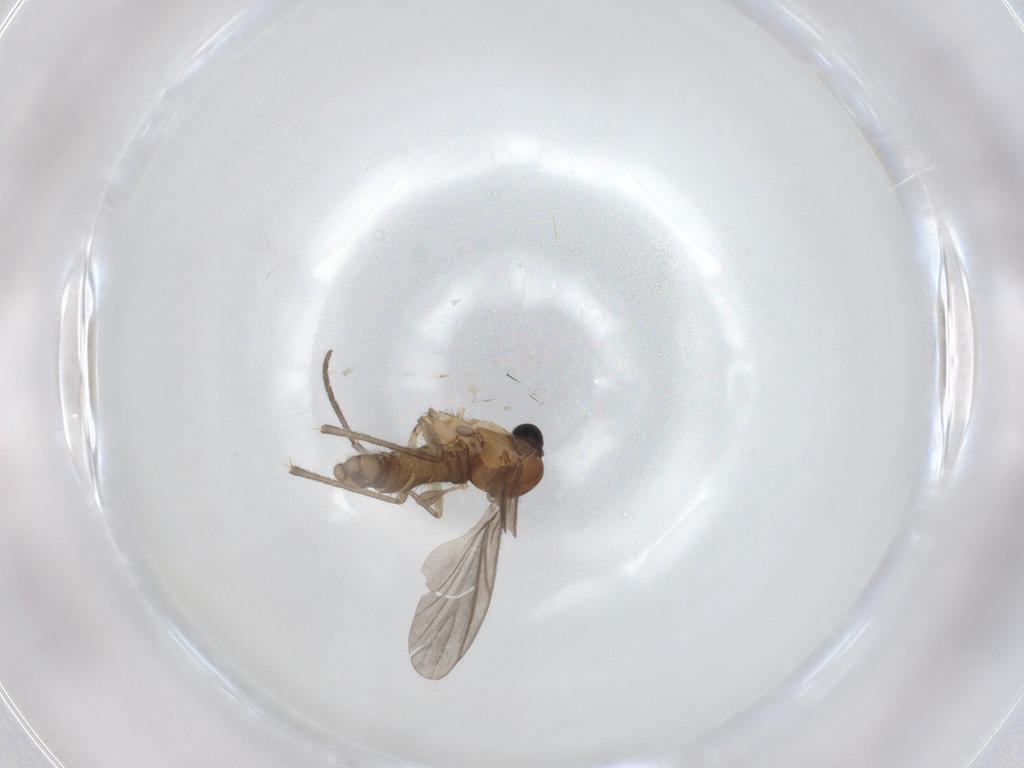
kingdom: Animalia
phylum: Arthropoda
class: Insecta
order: Diptera
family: Sciaridae
